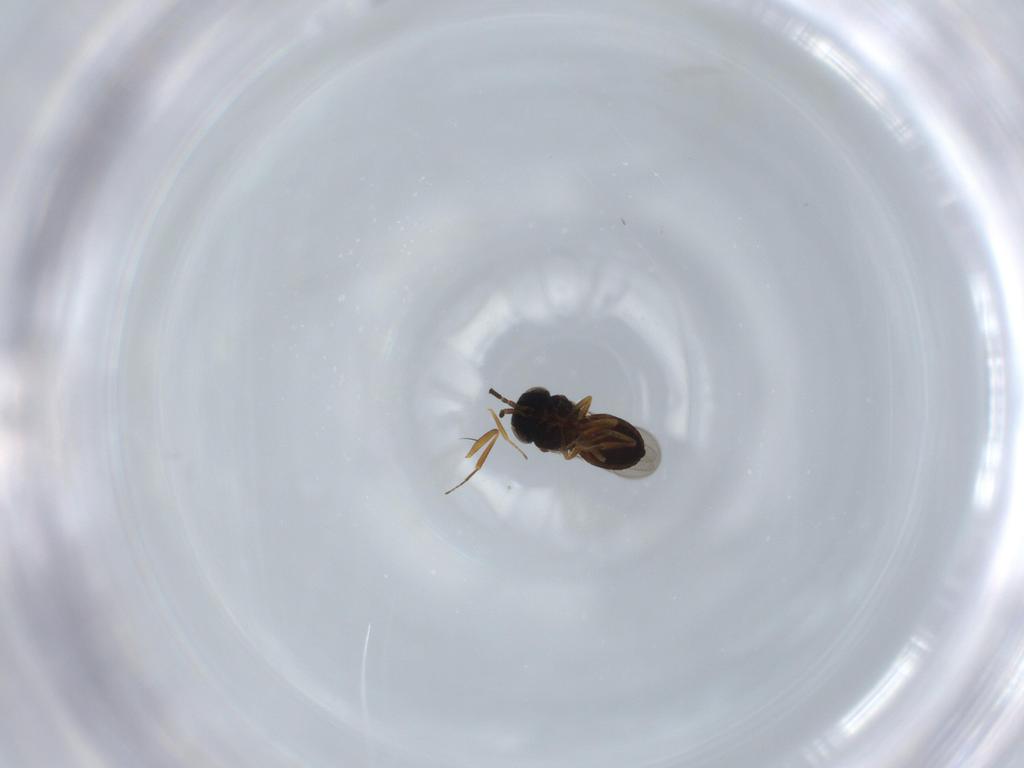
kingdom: Animalia
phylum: Arthropoda
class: Insecta
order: Hymenoptera
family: Scelionidae
